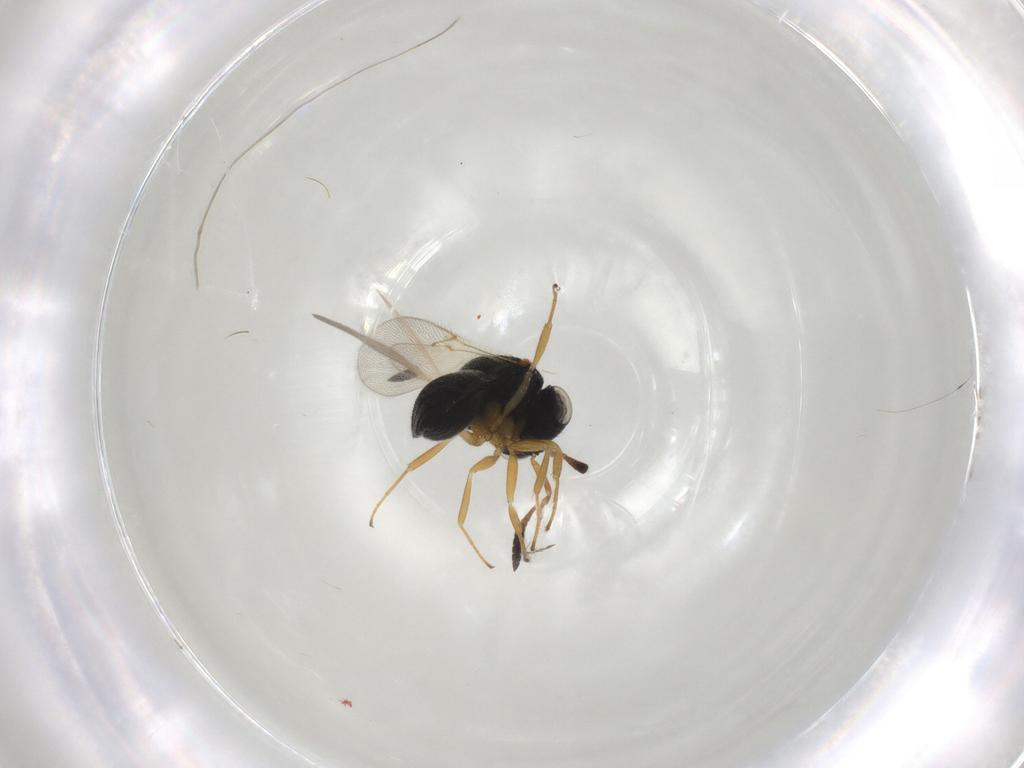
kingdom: Animalia
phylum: Arthropoda
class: Insecta
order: Hymenoptera
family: Scelionidae
